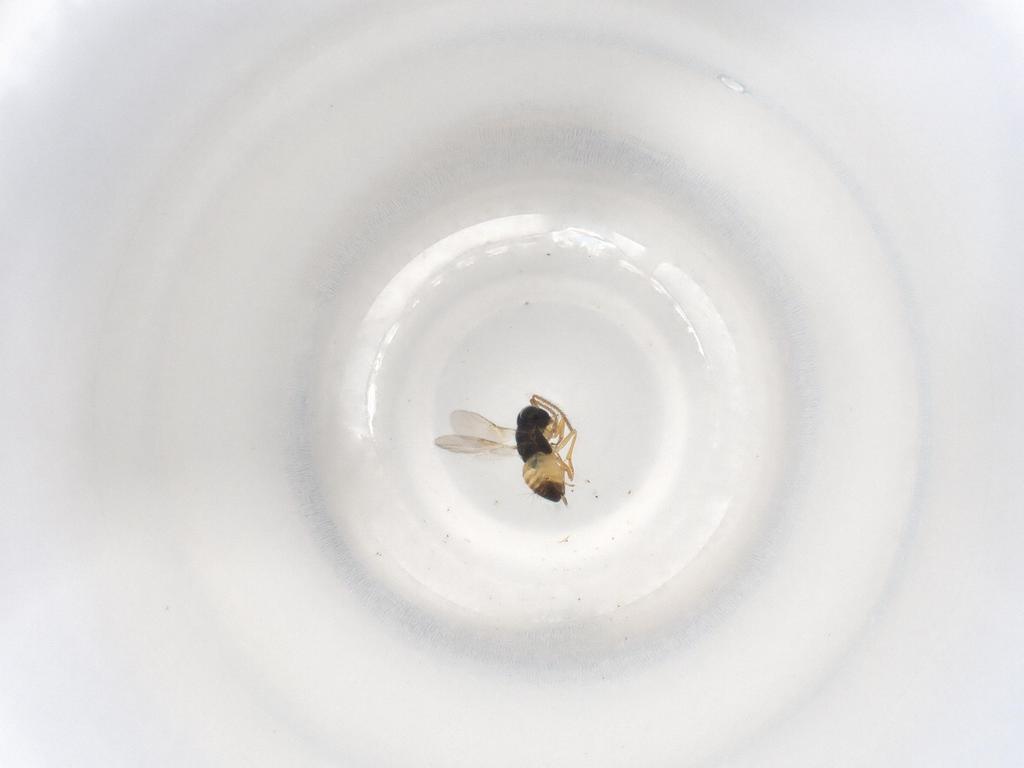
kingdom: Animalia
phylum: Arthropoda
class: Insecta
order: Diptera
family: Dolichopodidae
